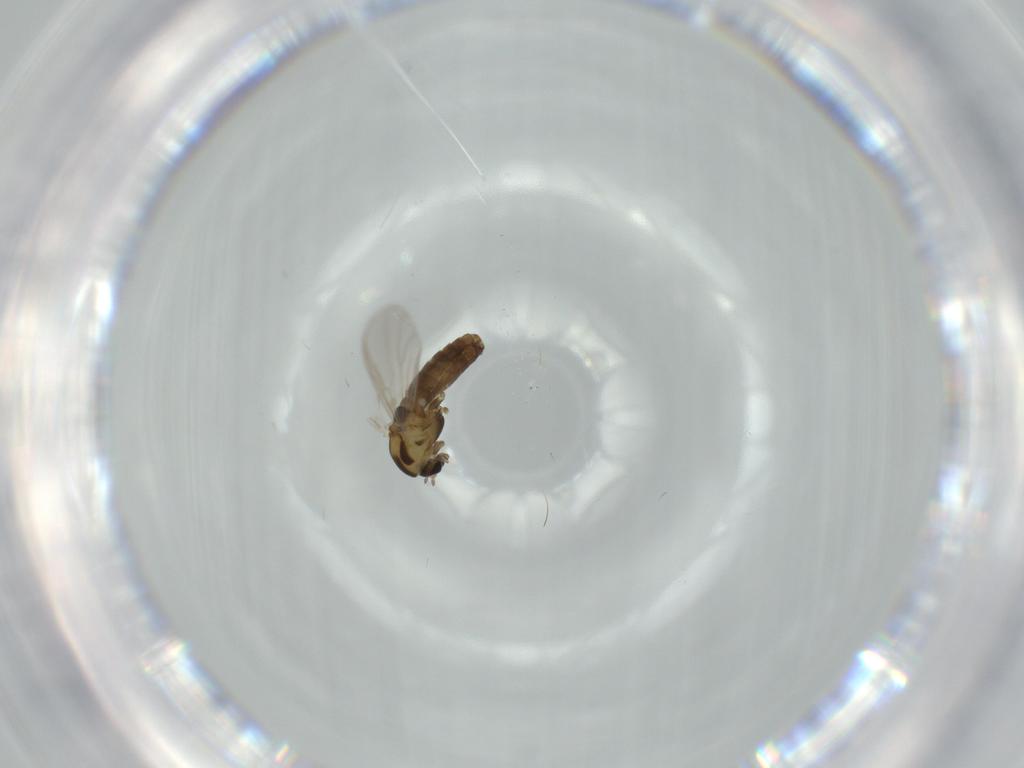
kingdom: Animalia
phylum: Arthropoda
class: Insecta
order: Diptera
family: Chironomidae
